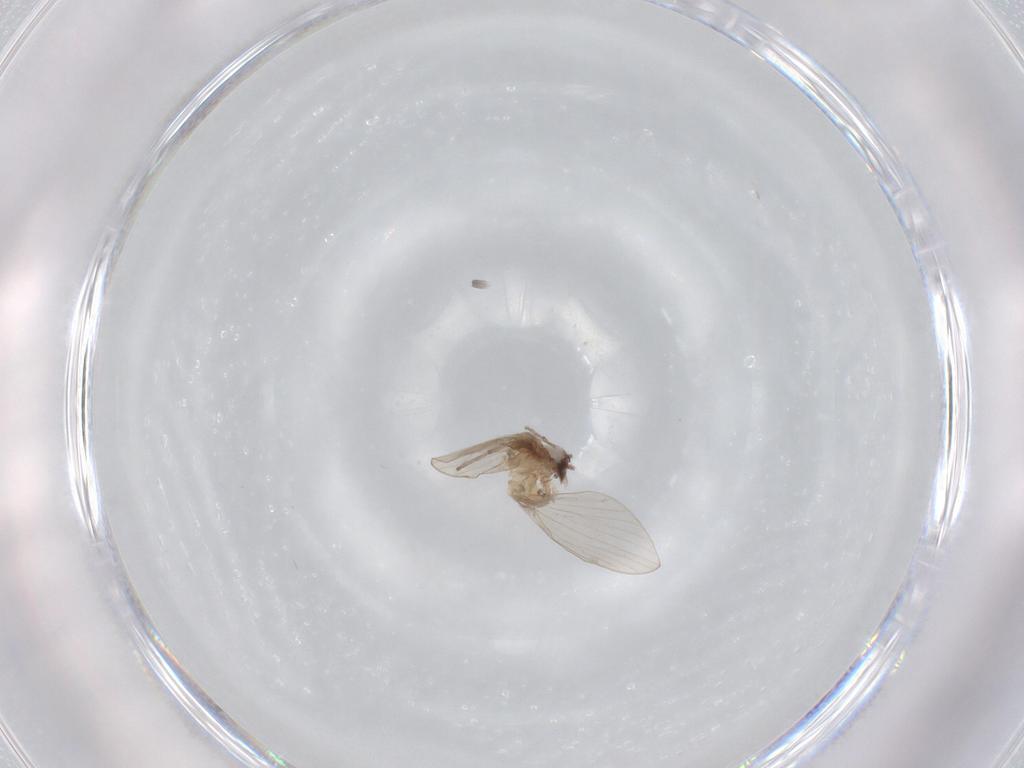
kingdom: Animalia
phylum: Arthropoda
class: Insecta
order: Diptera
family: Psychodidae
